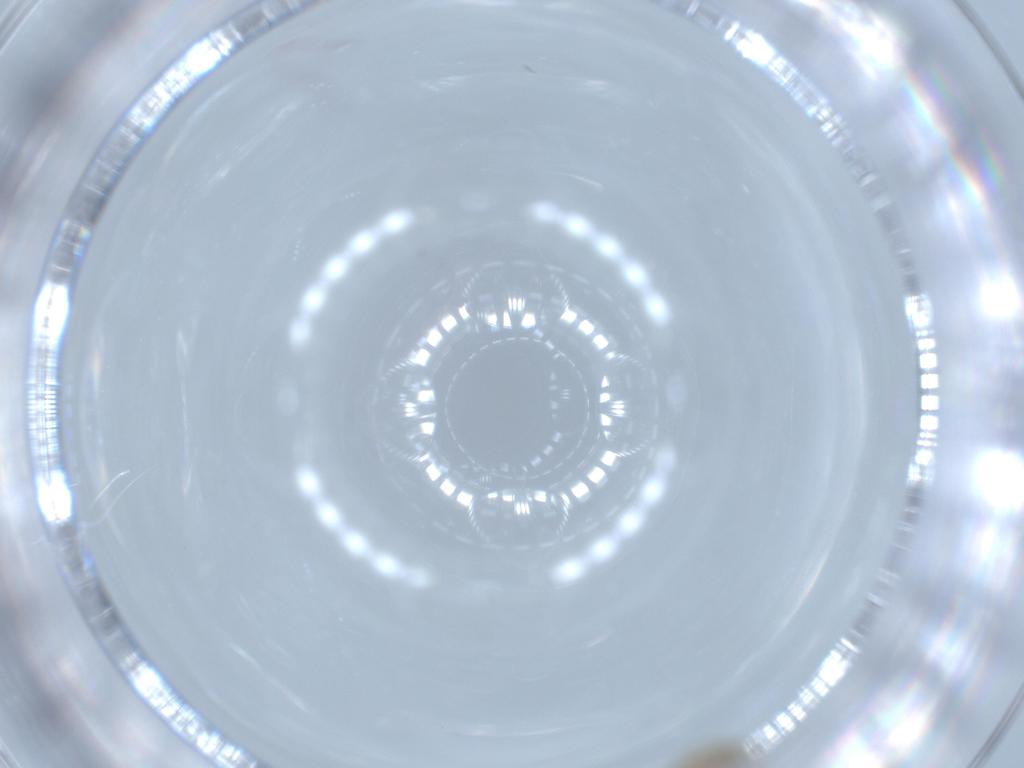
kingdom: Animalia
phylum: Arthropoda
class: Insecta
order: Diptera
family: Cecidomyiidae
